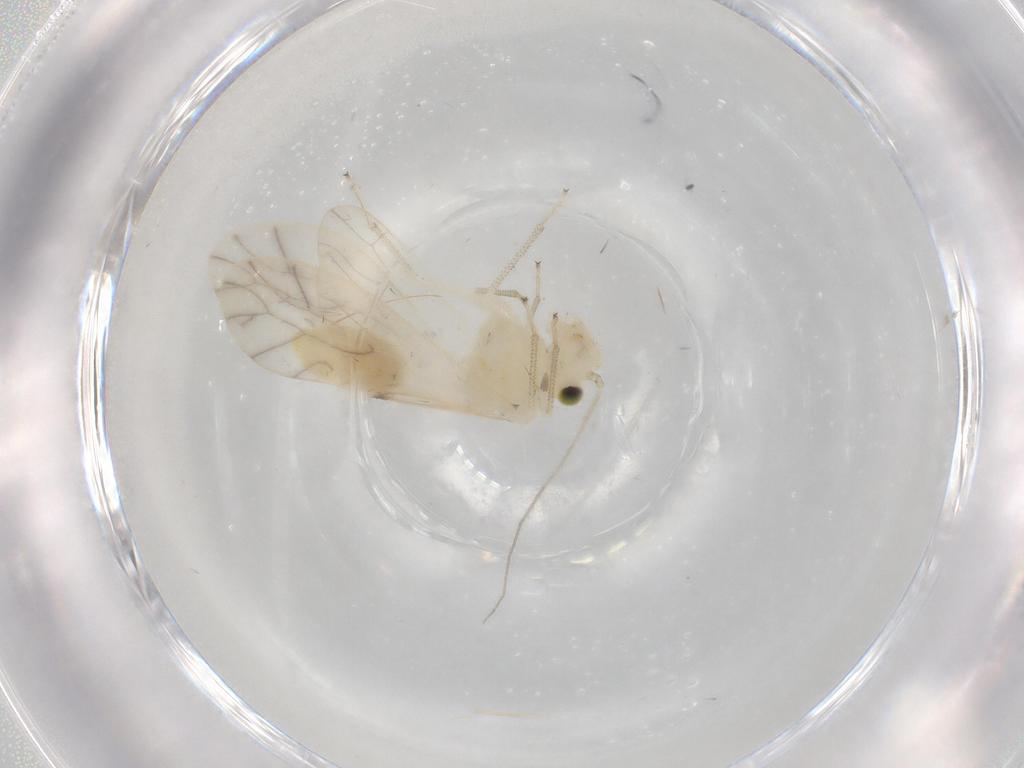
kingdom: Animalia
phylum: Arthropoda
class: Insecta
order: Psocodea
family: Caeciliusidae
